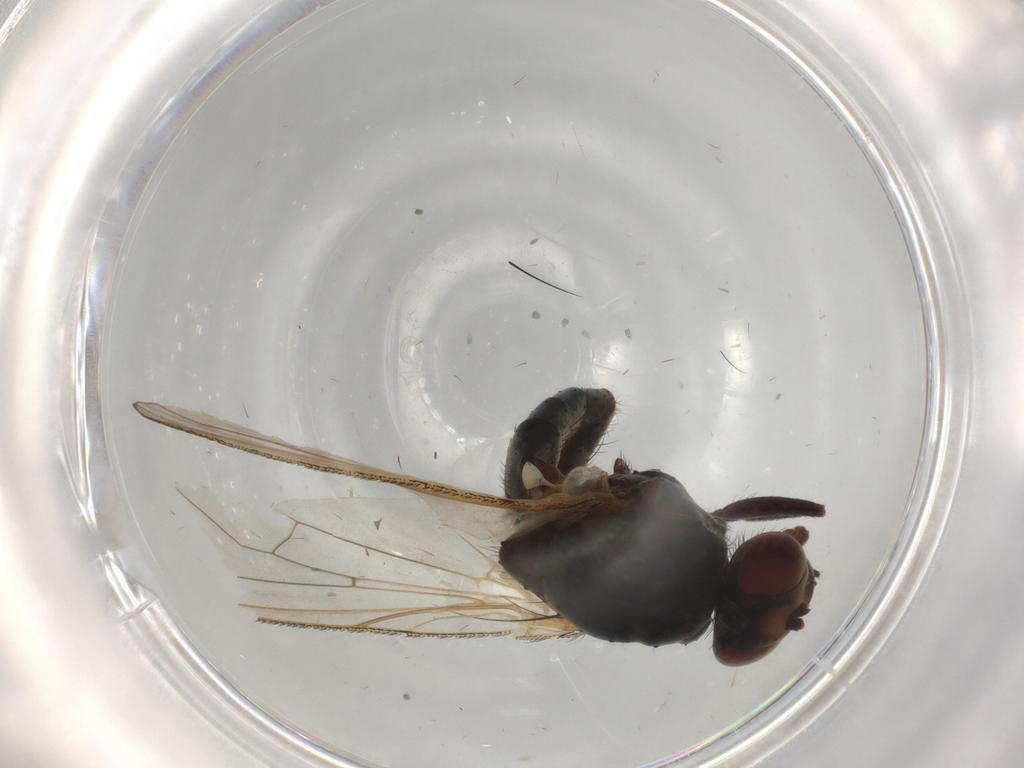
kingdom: Animalia
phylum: Arthropoda
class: Insecta
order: Diptera
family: Anthomyiidae
